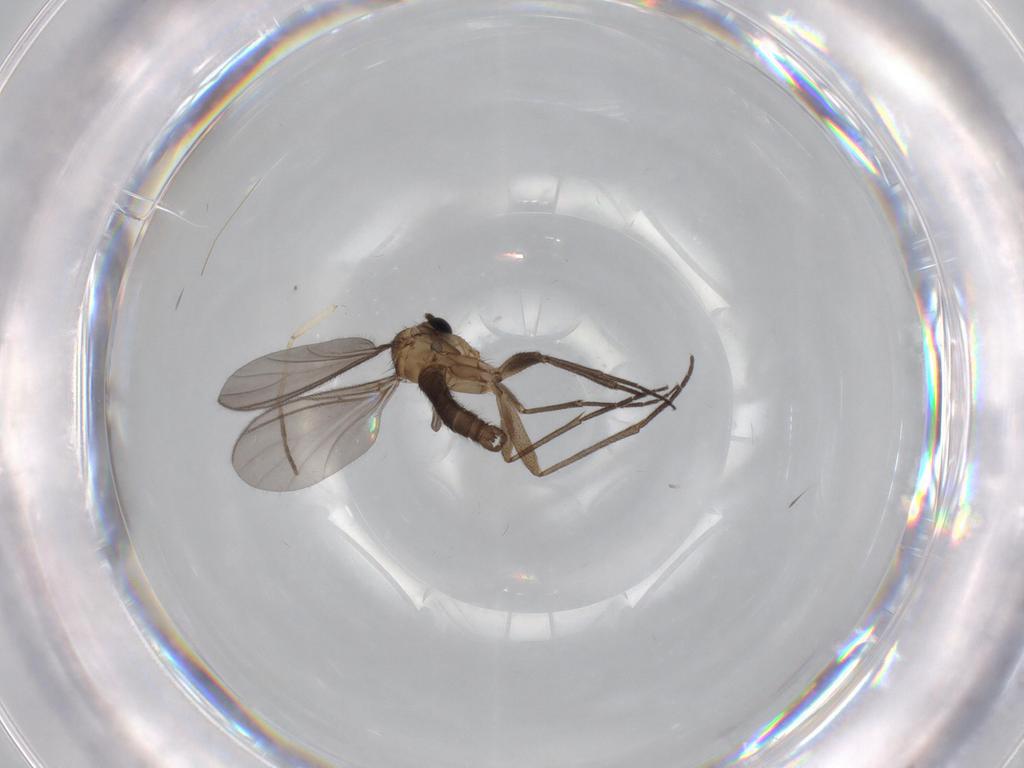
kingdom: Animalia
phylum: Arthropoda
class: Insecta
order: Diptera
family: Sciaridae
